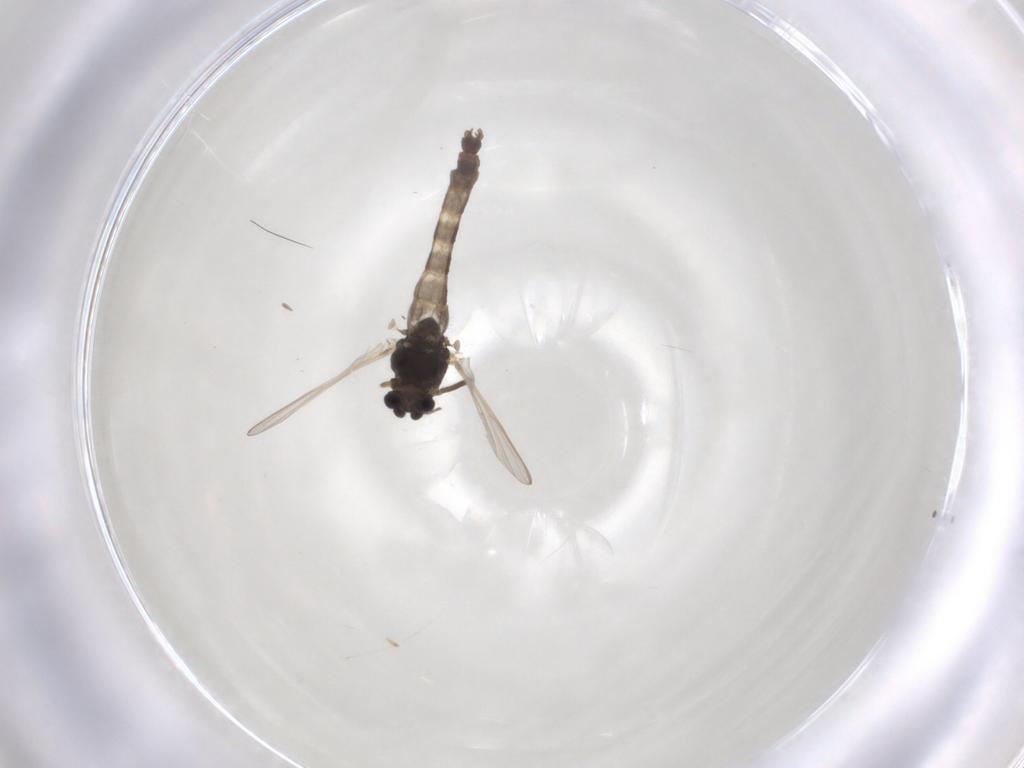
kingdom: Animalia
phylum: Arthropoda
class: Insecta
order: Diptera
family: Chironomidae
